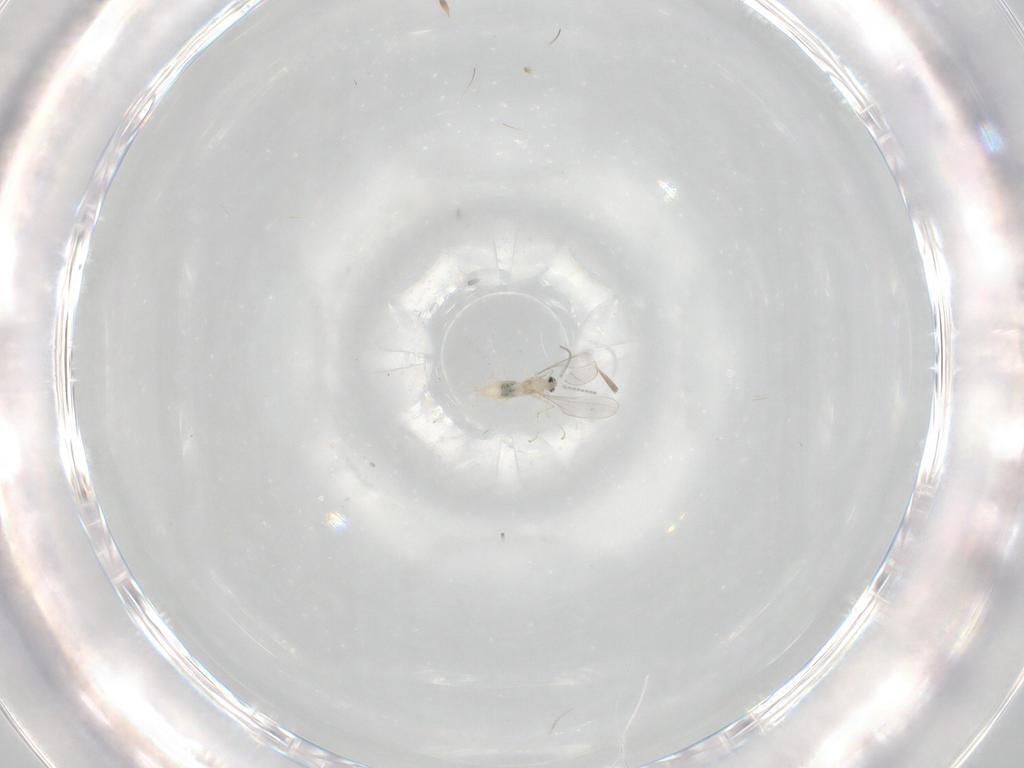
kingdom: Animalia
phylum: Arthropoda
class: Insecta
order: Diptera
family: Cecidomyiidae
